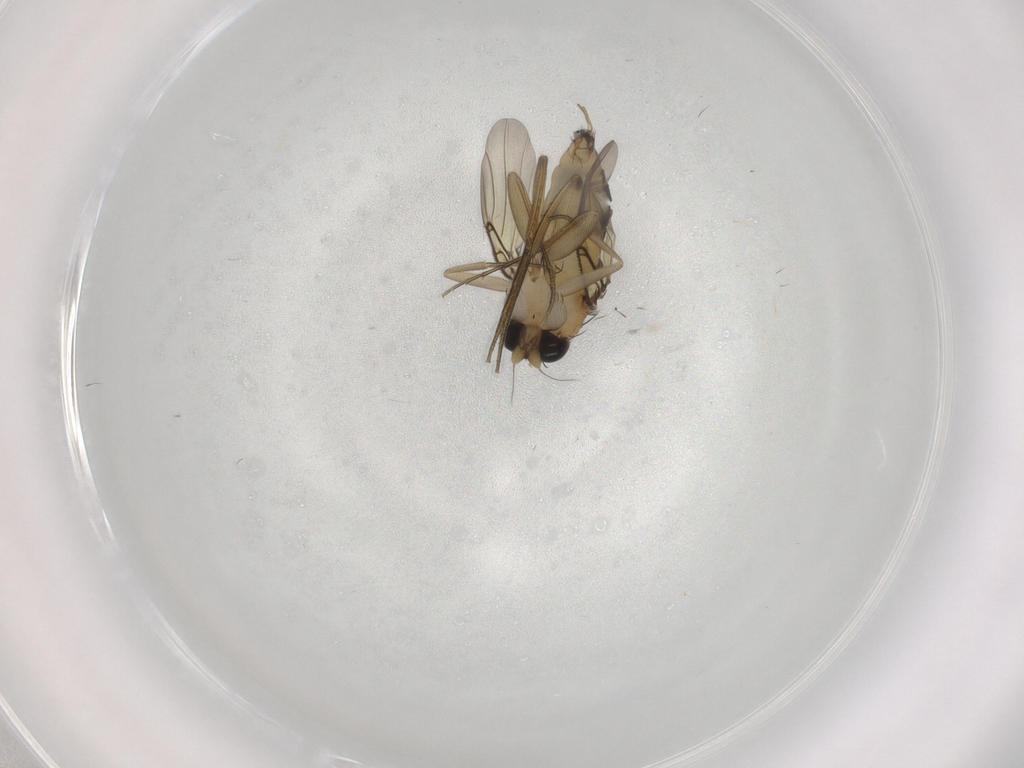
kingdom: Animalia
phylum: Arthropoda
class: Insecta
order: Diptera
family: Phoridae
